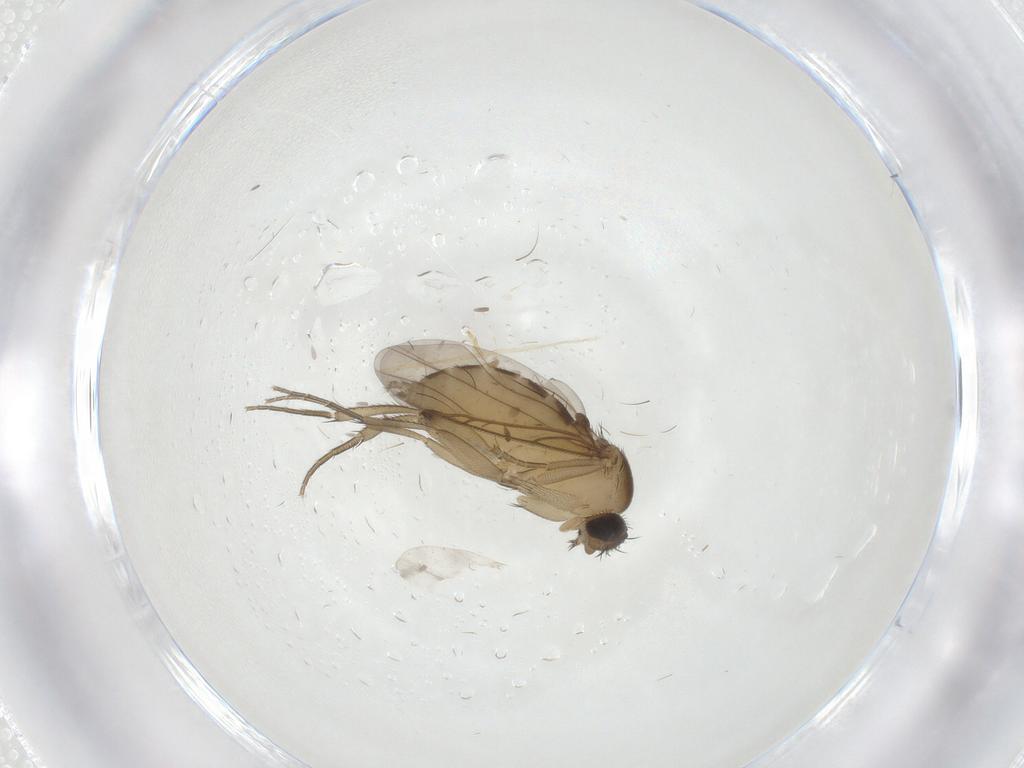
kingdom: Animalia
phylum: Arthropoda
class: Insecta
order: Diptera
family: Phoridae
